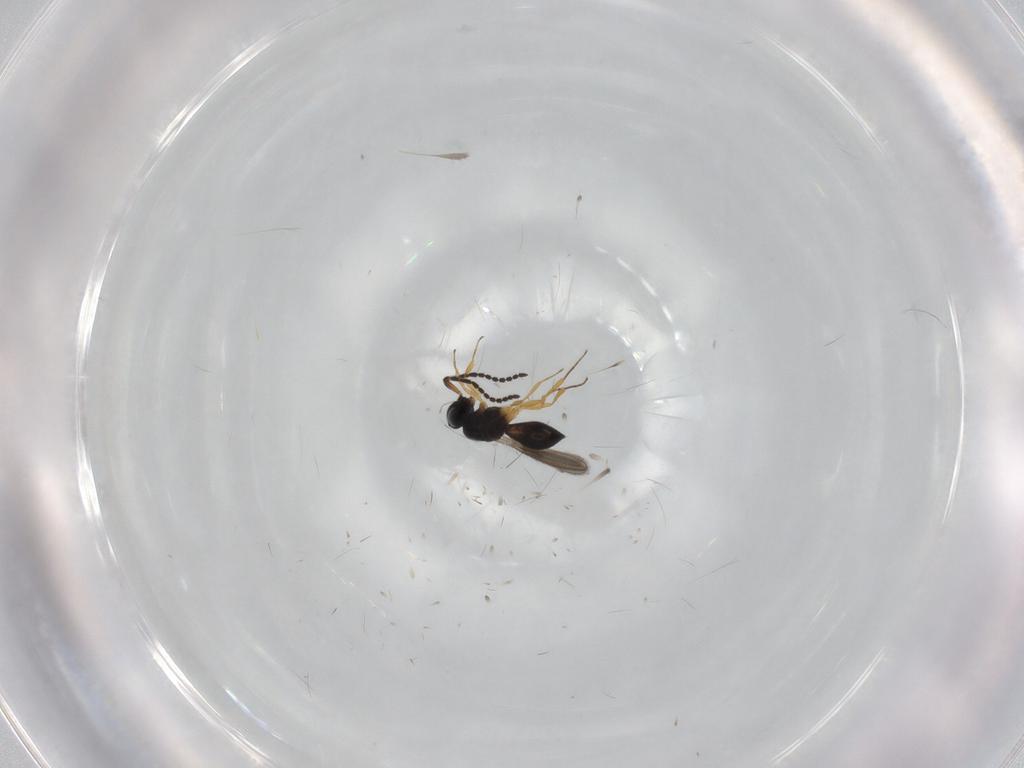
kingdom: Animalia
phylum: Arthropoda
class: Insecta
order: Hymenoptera
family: Scelionidae
